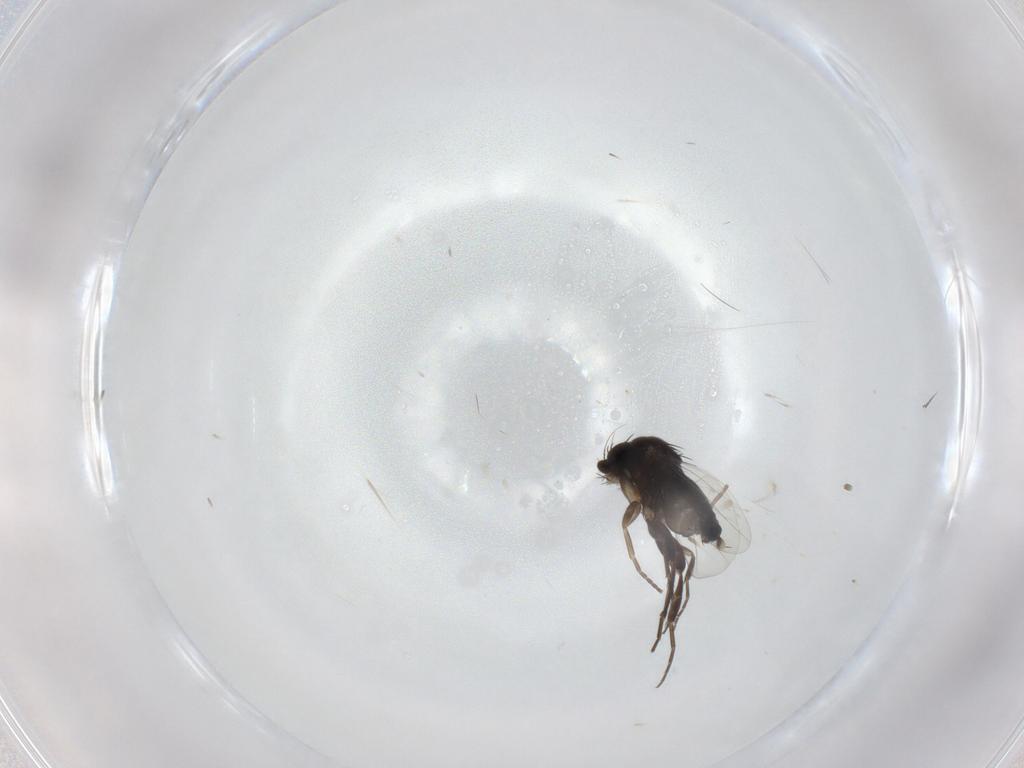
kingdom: Animalia
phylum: Arthropoda
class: Insecta
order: Diptera
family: Phoridae
